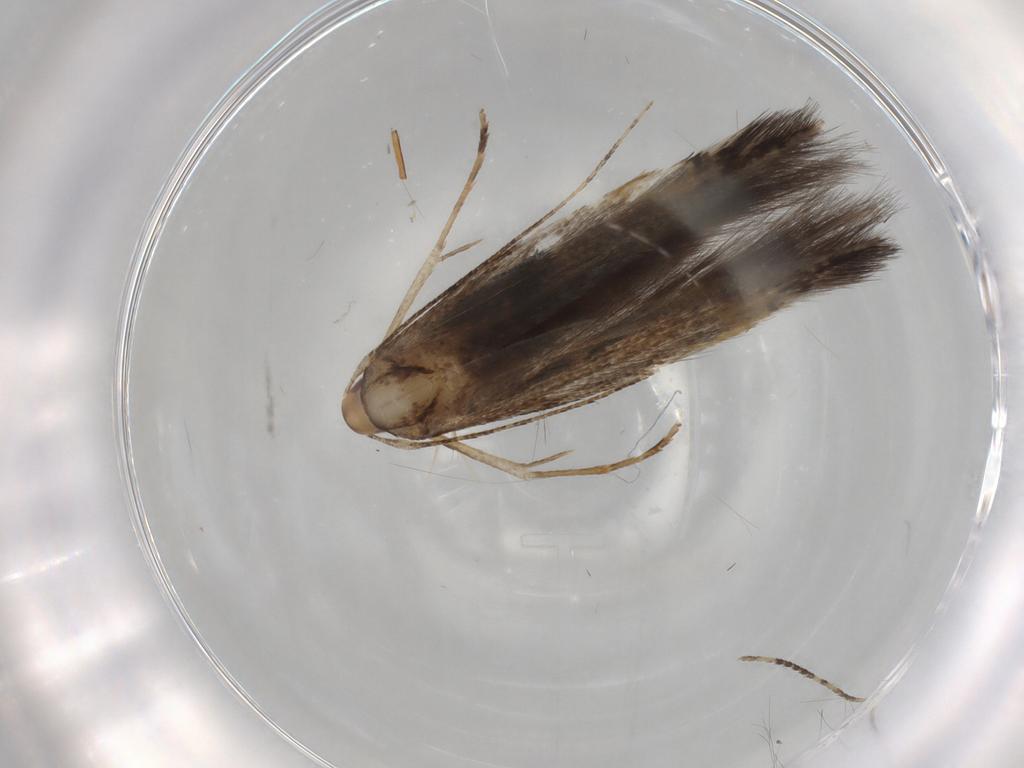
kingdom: Animalia
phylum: Arthropoda
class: Insecta
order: Lepidoptera
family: Cosmopterigidae
